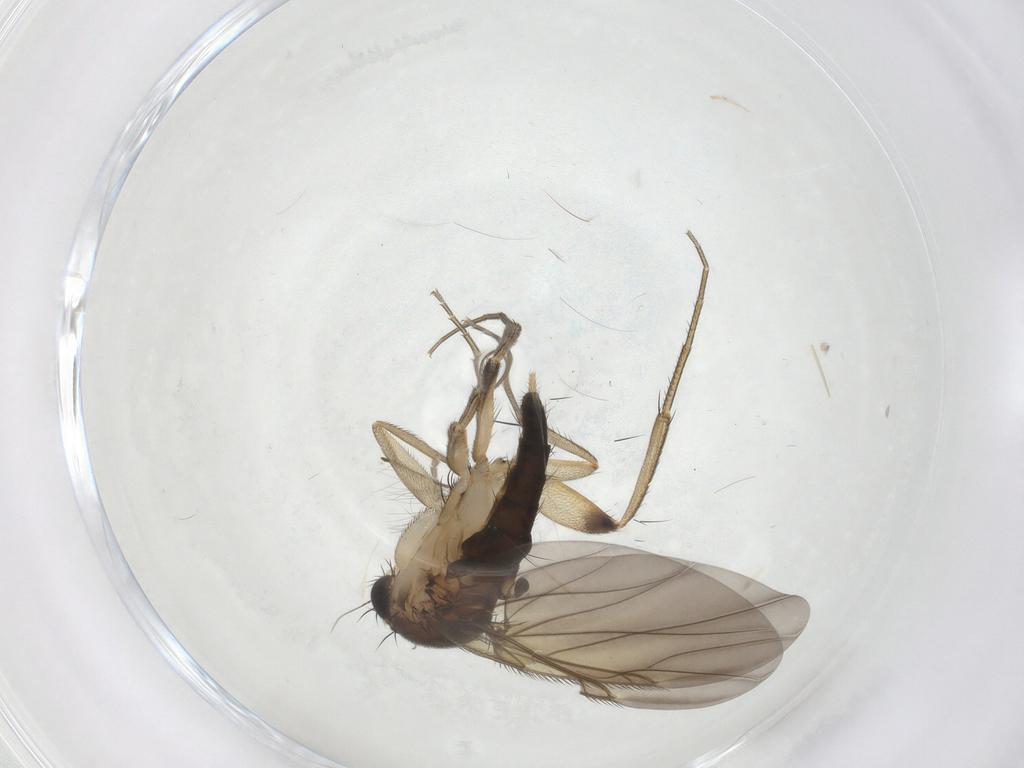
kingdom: Animalia
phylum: Arthropoda
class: Insecta
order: Diptera
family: Phoridae
